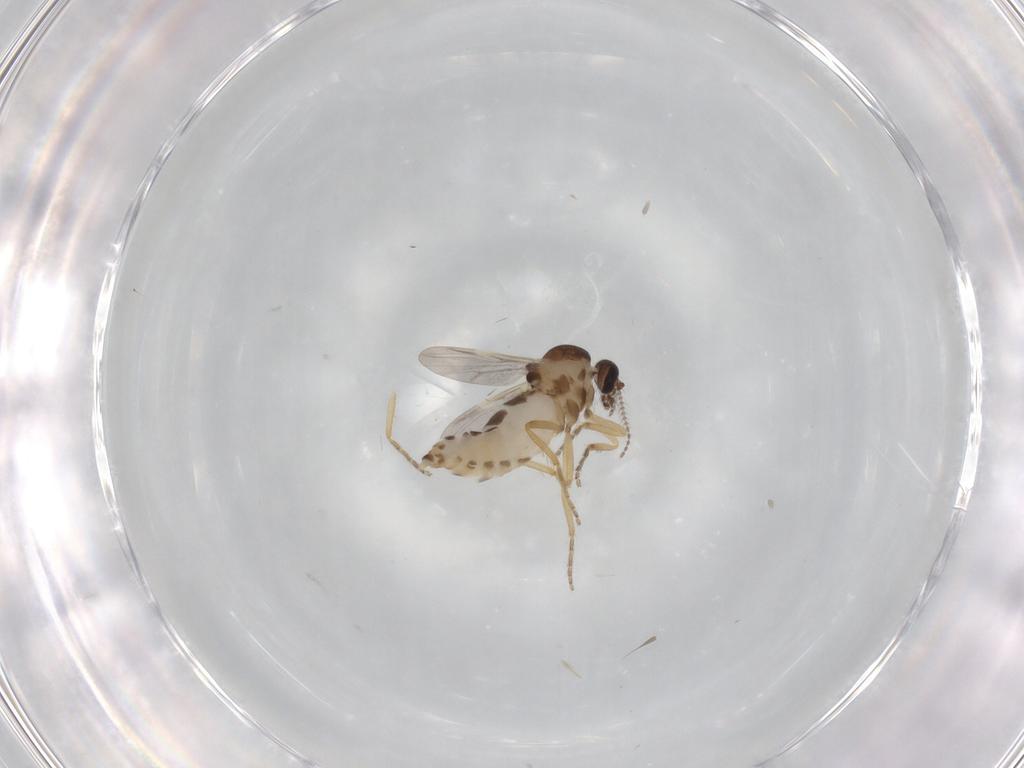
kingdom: Animalia
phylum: Arthropoda
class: Insecta
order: Diptera
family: Ceratopogonidae
